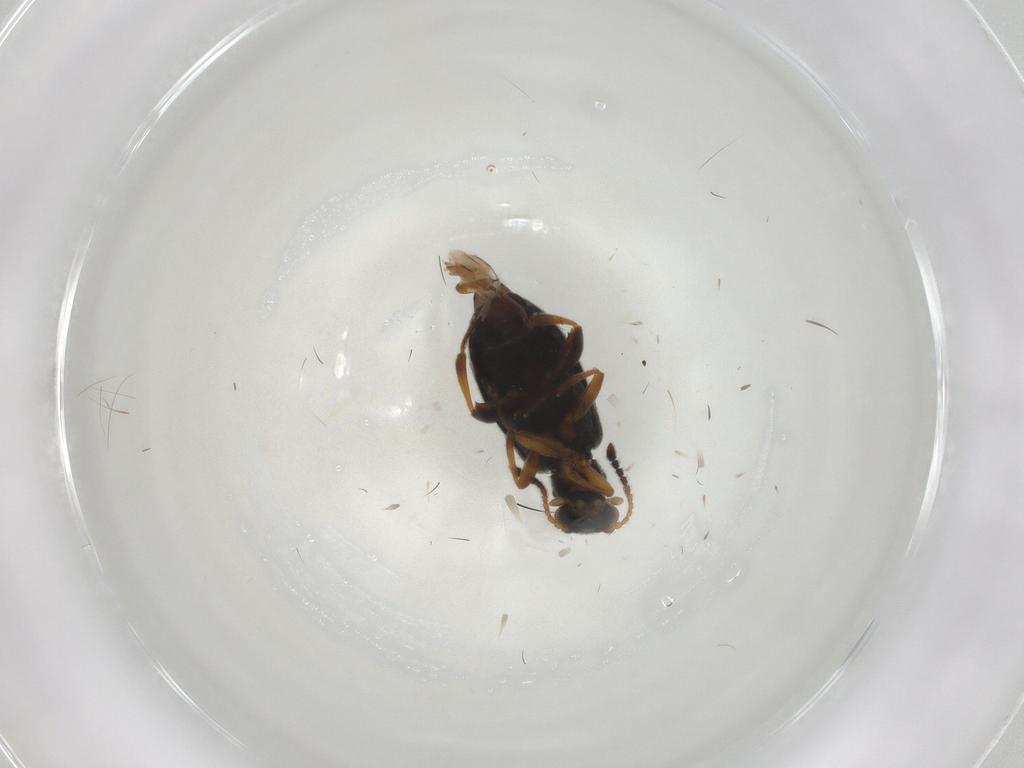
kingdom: Animalia
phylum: Arthropoda
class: Insecta
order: Coleoptera
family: Aderidae
